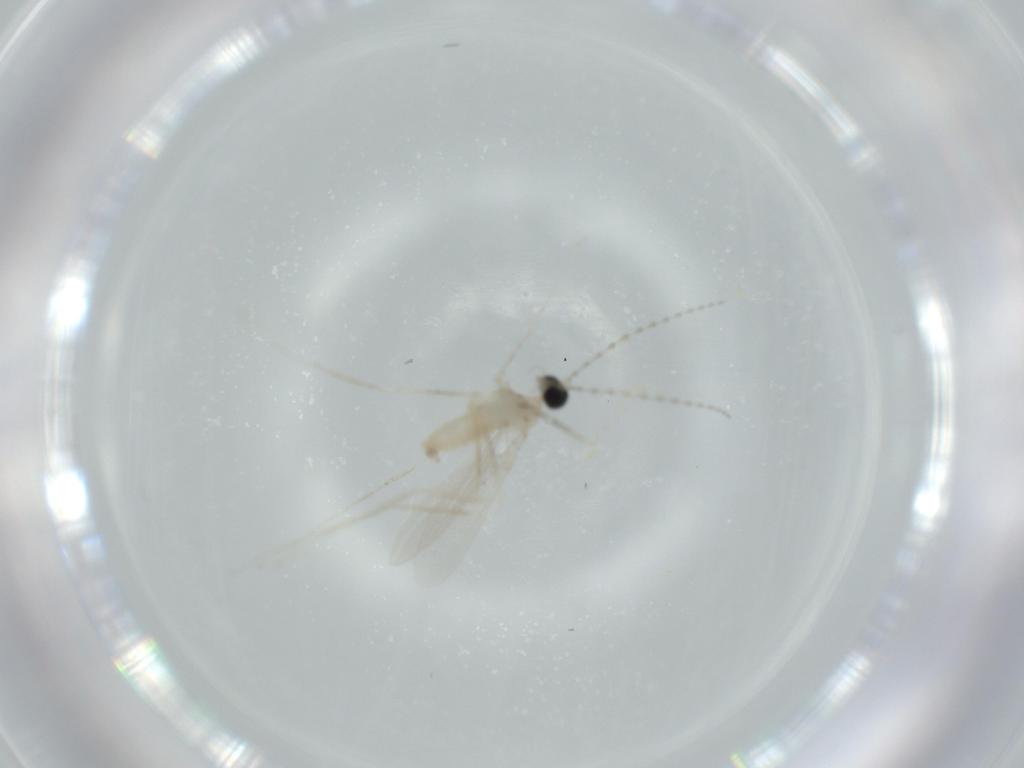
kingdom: Animalia
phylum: Arthropoda
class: Insecta
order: Diptera
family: Cecidomyiidae
